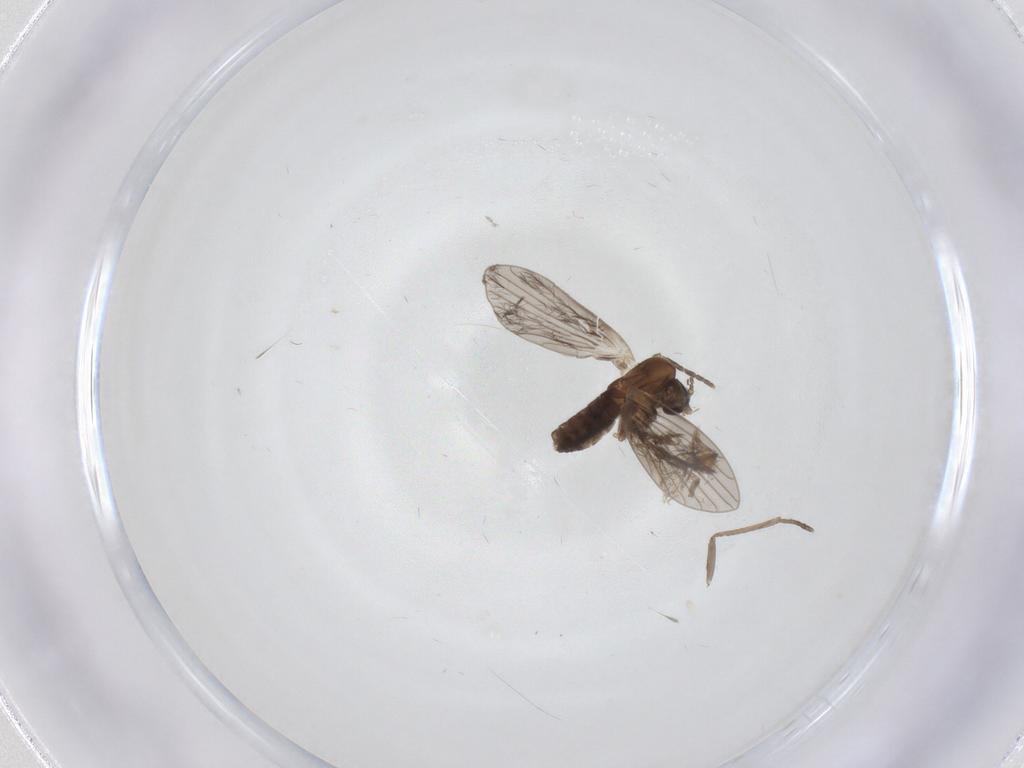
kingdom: Animalia
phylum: Arthropoda
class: Insecta
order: Diptera
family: Psychodidae
